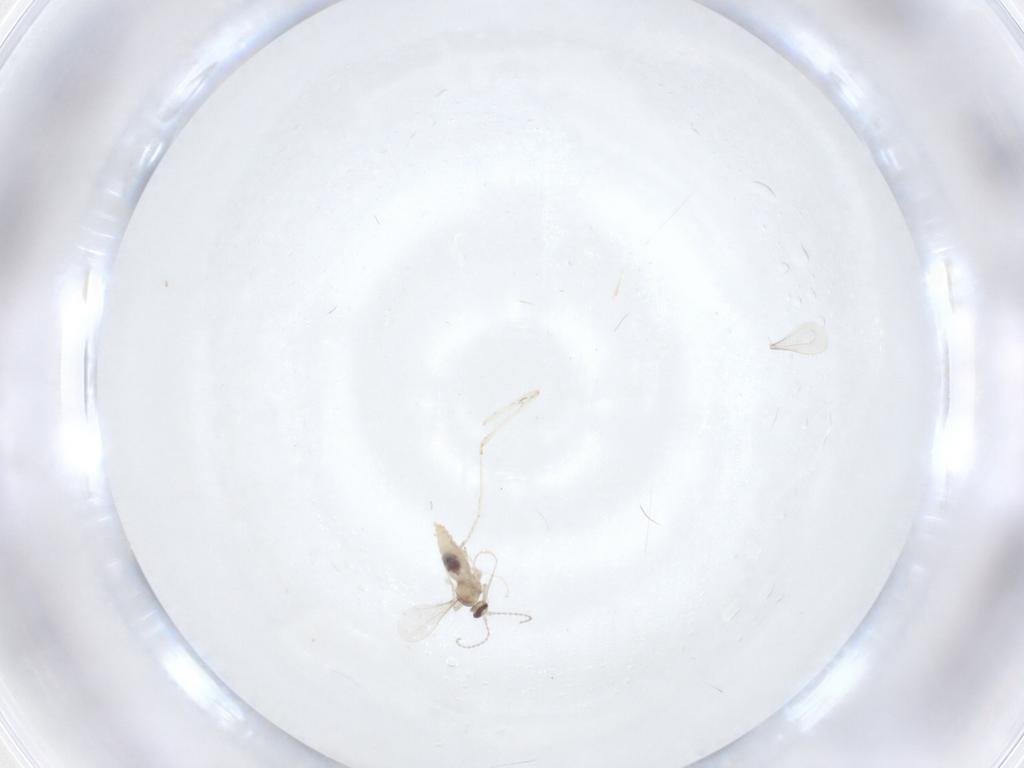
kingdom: Animalia
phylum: Arthropoda
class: Insecta
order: Diptera
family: Cecidomyiidae
